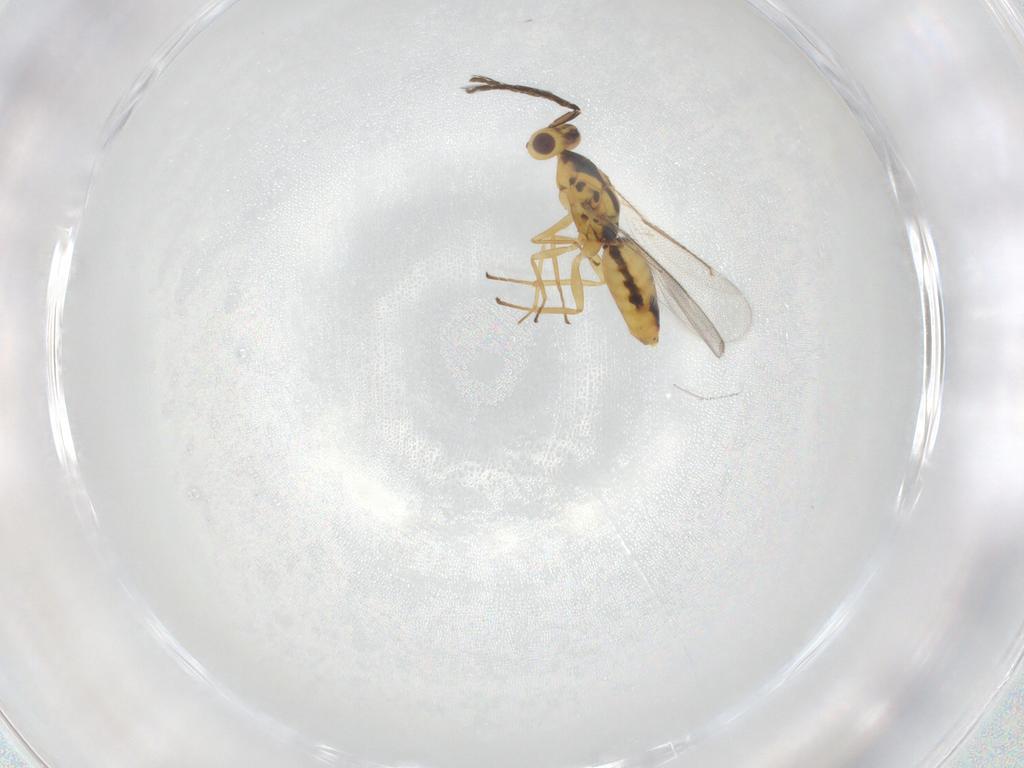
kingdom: Animalia
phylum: Arthropoda
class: Insecta
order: Hymenoptera
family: Eulophidae
